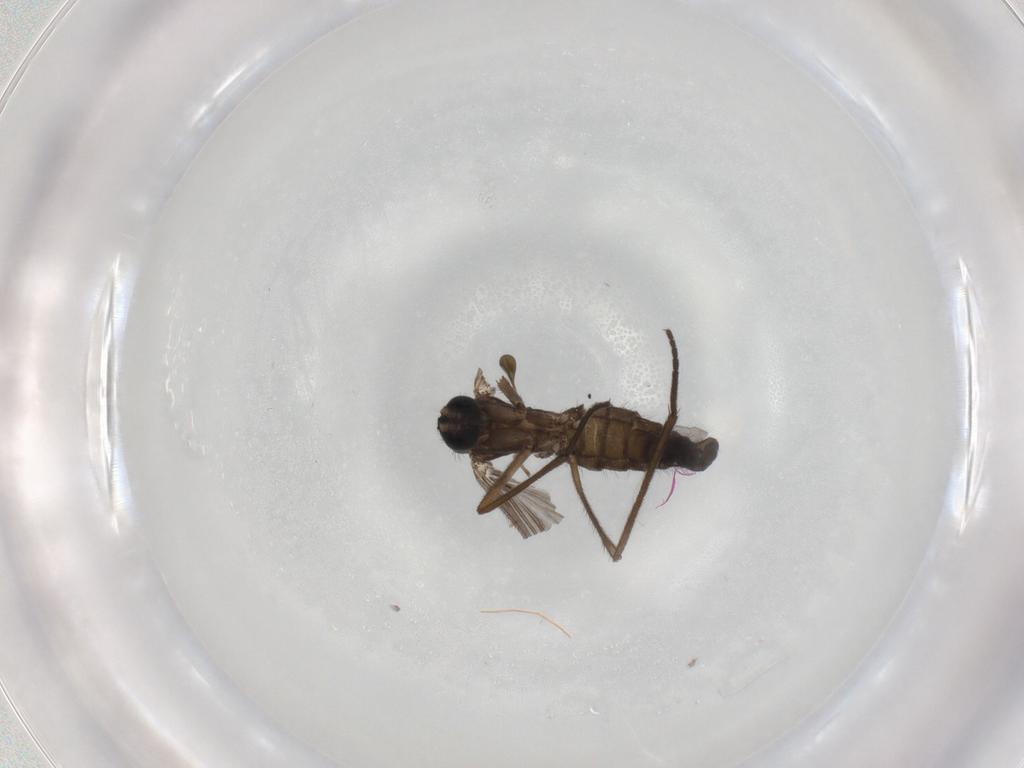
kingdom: Animalia
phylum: Arthropoda
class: Insecta
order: Diptera
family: Sciaridae
